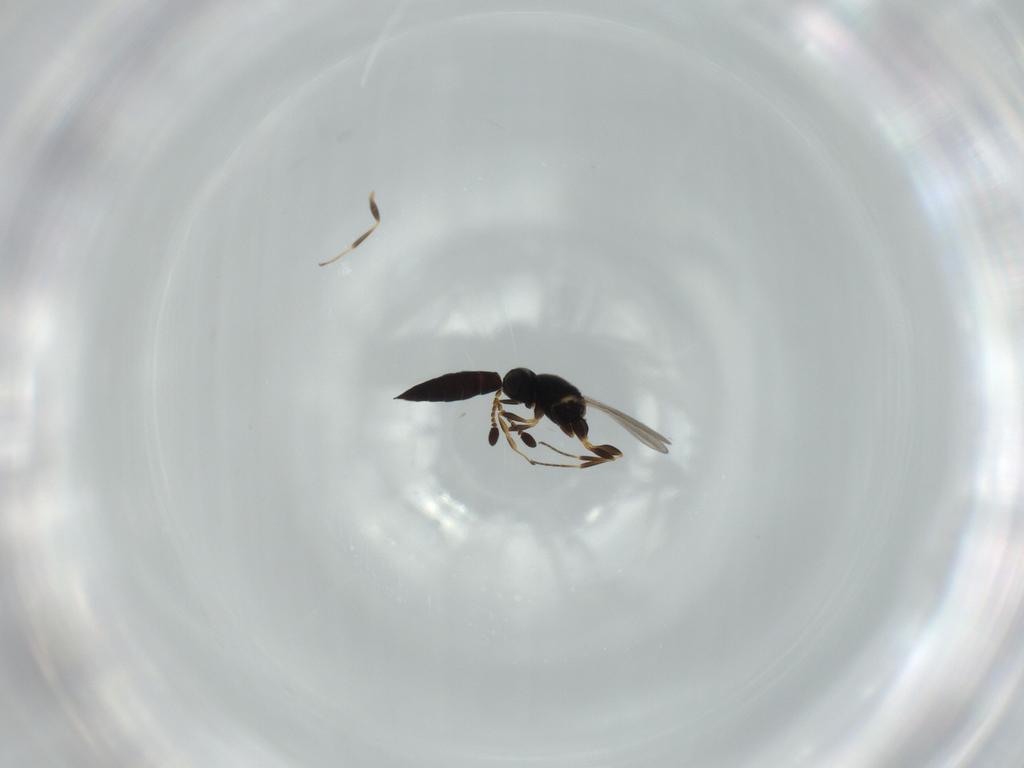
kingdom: Animalia
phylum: Arthropoda
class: Insecta
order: Hymenoptera
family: Scelionidae
